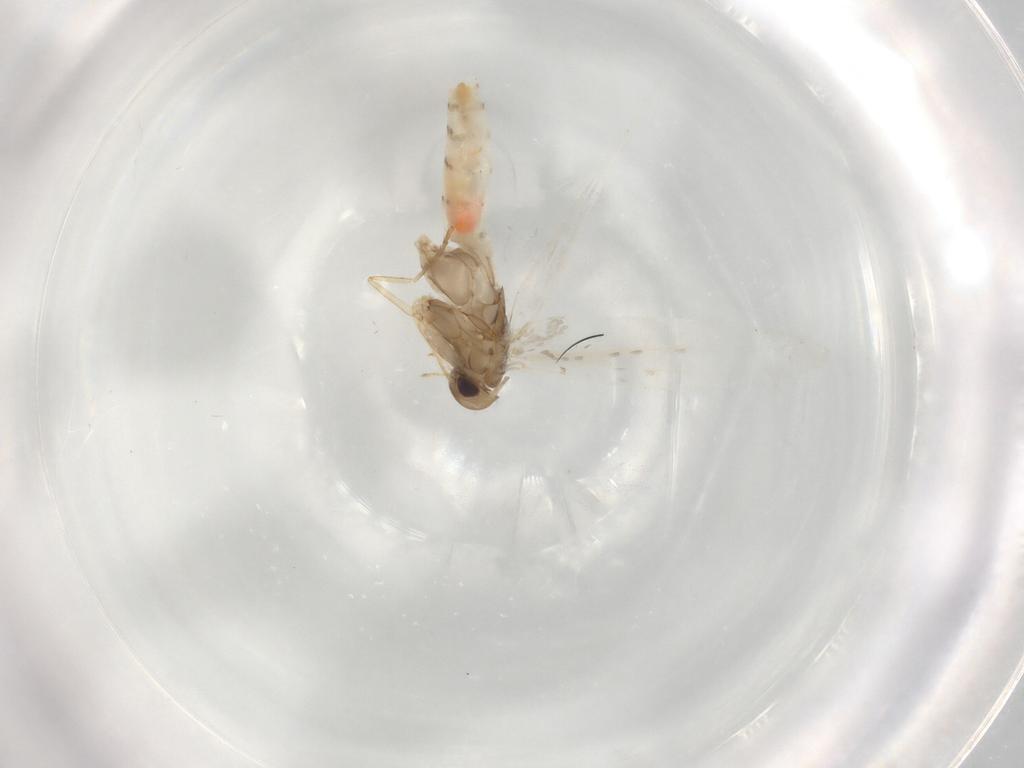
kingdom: Animalia
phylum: Arthropoda
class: Insecta
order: Lepidoptera
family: Gracillariidae
